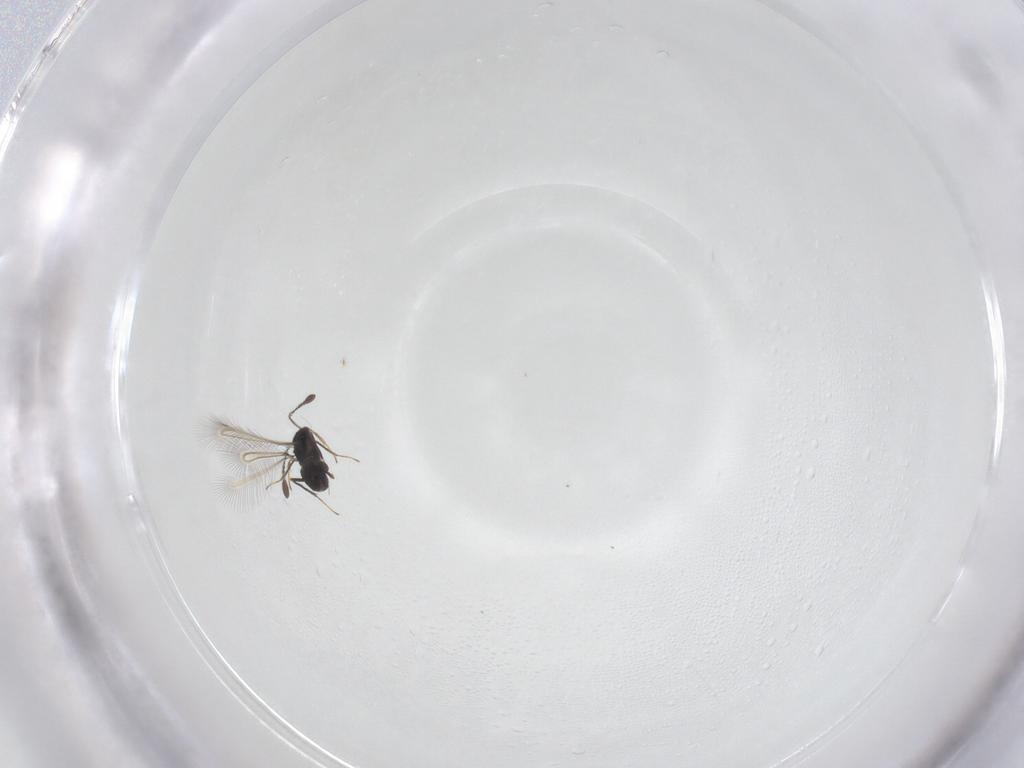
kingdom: Animalia
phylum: Arthropoda
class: Insecta
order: Hymenoptera
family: Mymaridae
